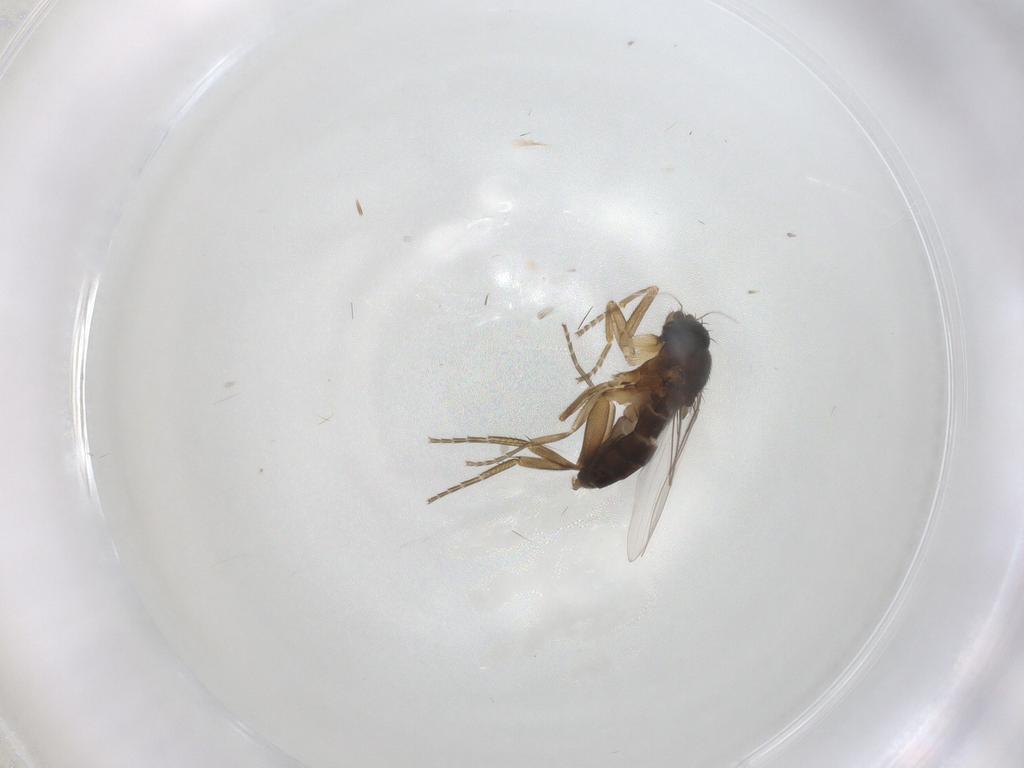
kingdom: Animalia
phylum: Arthropoda
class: Insecta
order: Diptera
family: Phoridae
